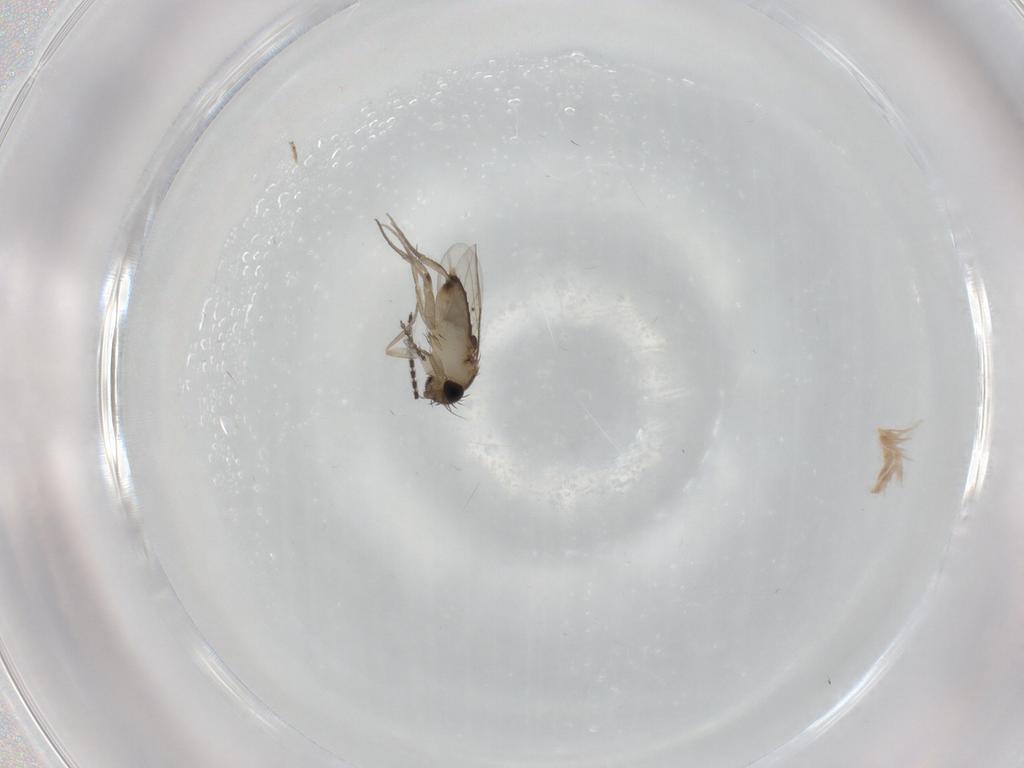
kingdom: Animalia
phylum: Arthropoda
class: Insecta
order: Diptera
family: Cecidomyiidae
